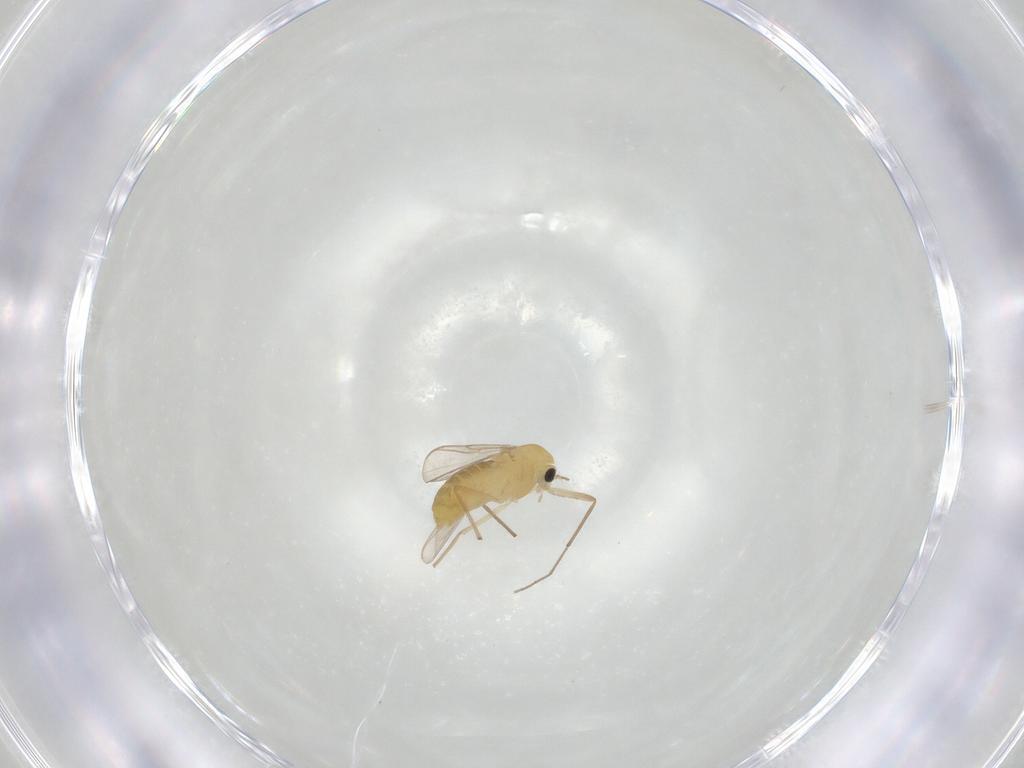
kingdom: Animalia
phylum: Arthropoda
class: Insecta
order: Diptera
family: Chironomidae
